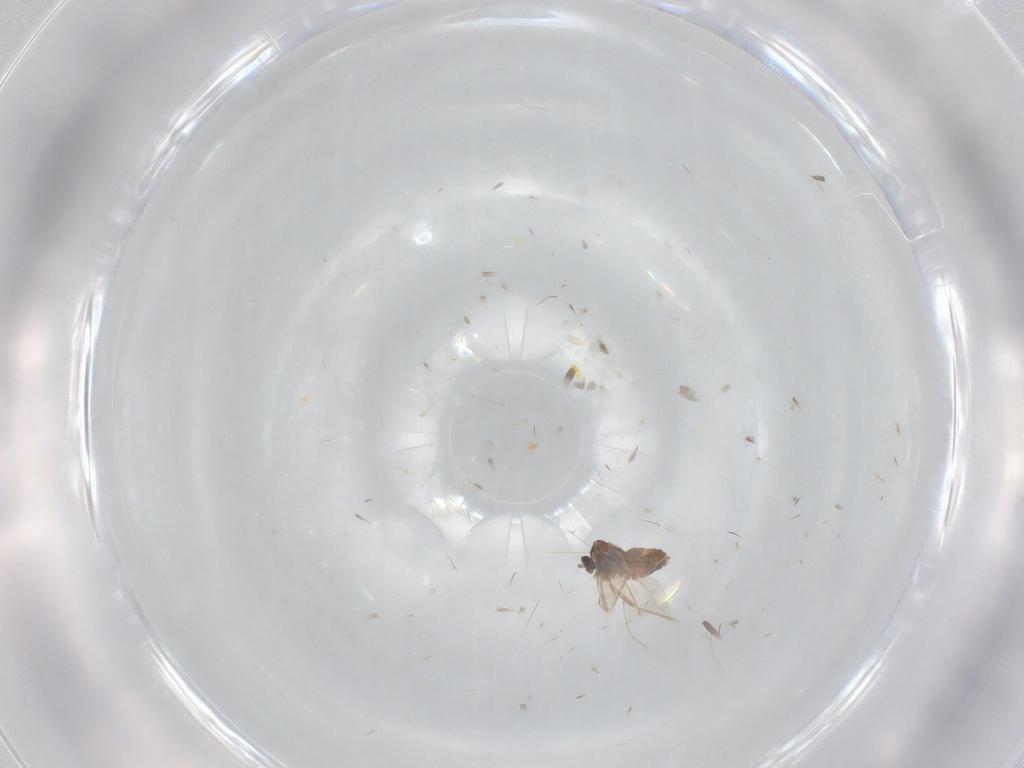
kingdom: Animalia
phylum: Arthropoda
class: Insecta
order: Diptera
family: Cecidomyiidae
